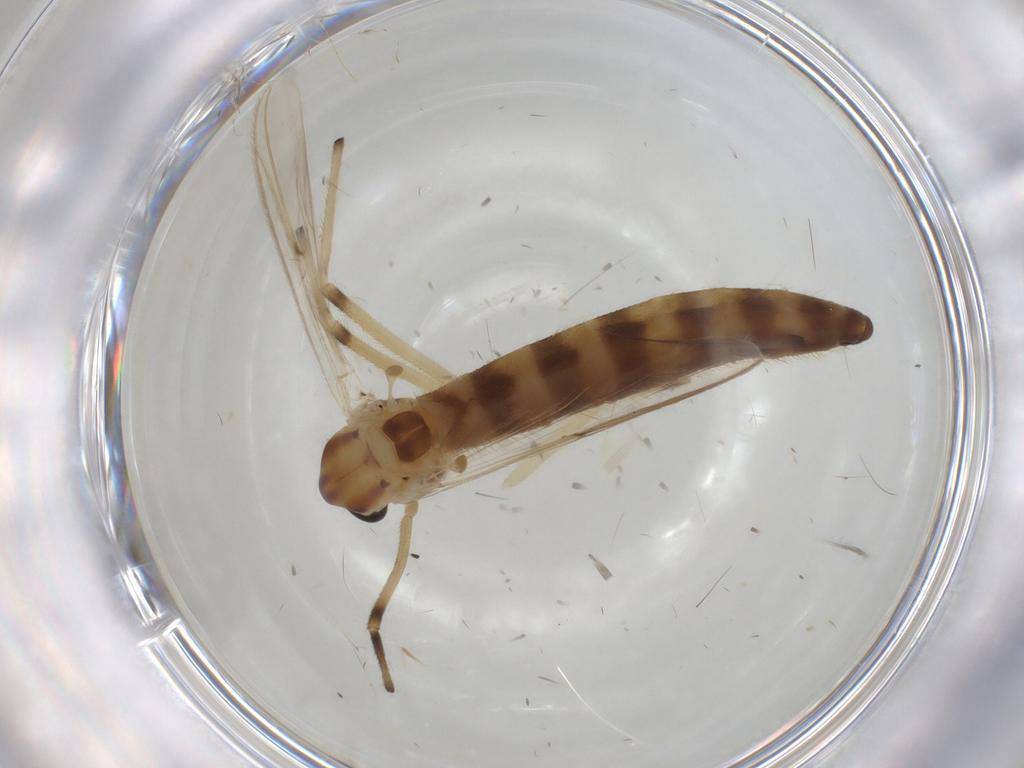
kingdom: Animalia
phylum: Arthropoda
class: Insecta
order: Diptera
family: Chironomidae
